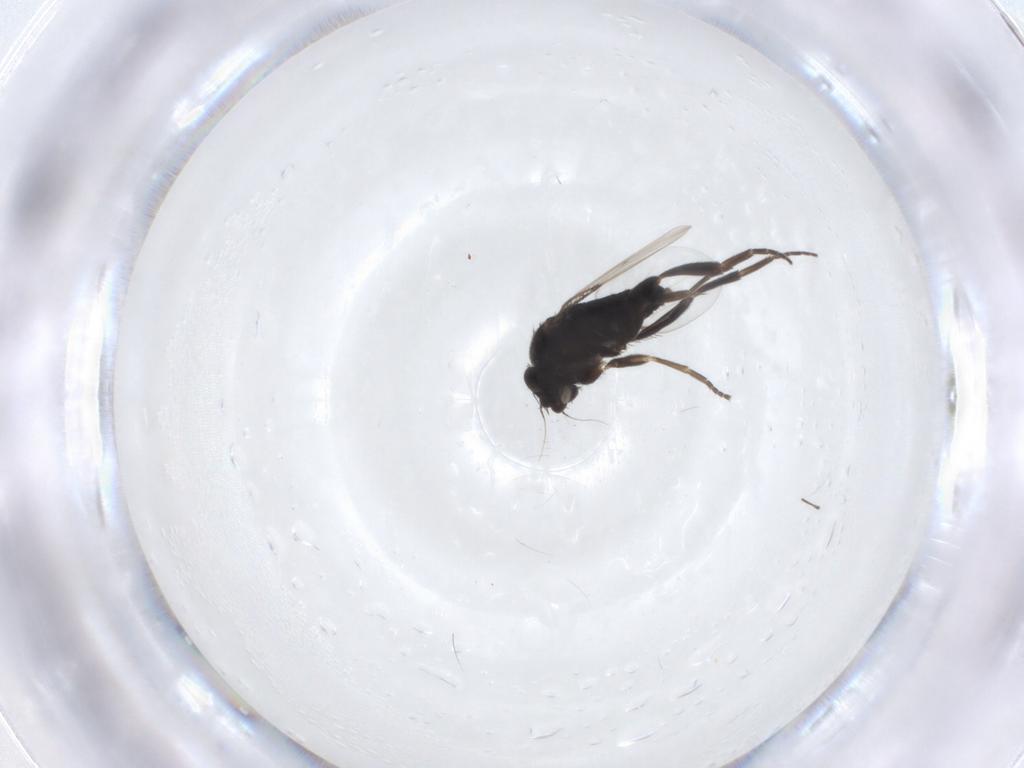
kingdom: Animalia
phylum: Arthropoda
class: Insecta
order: Diptera
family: Phoridae
